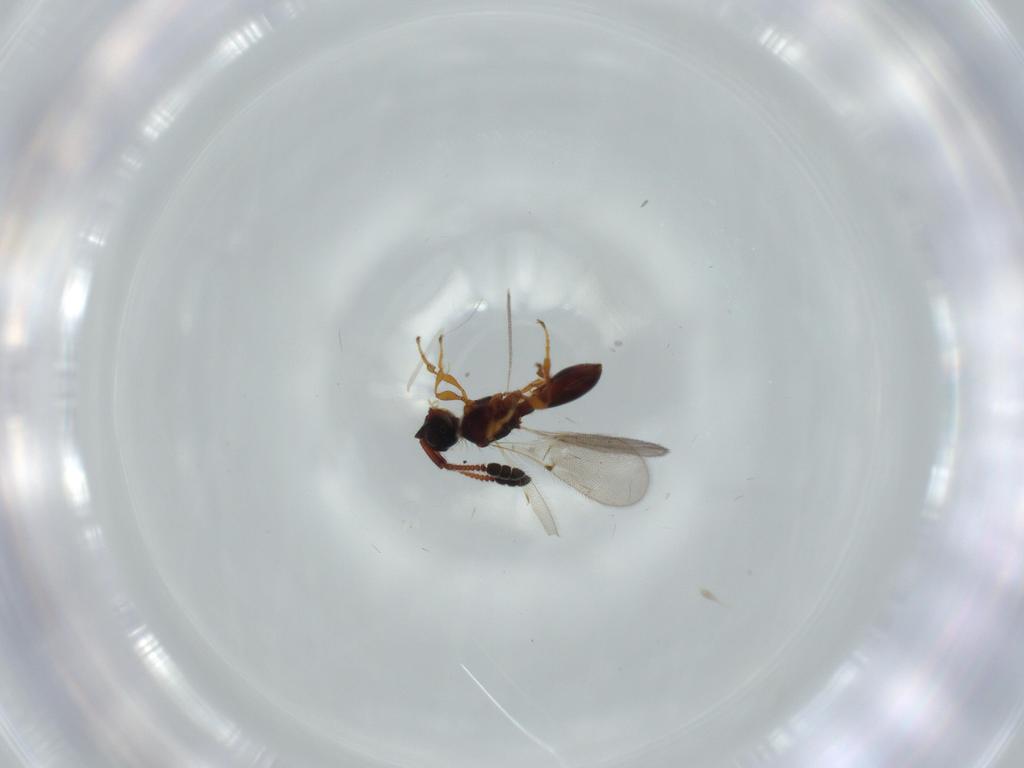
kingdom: Animalia
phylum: Arthropoda
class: Insecta
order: Hymenoptera
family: Diapriidae
